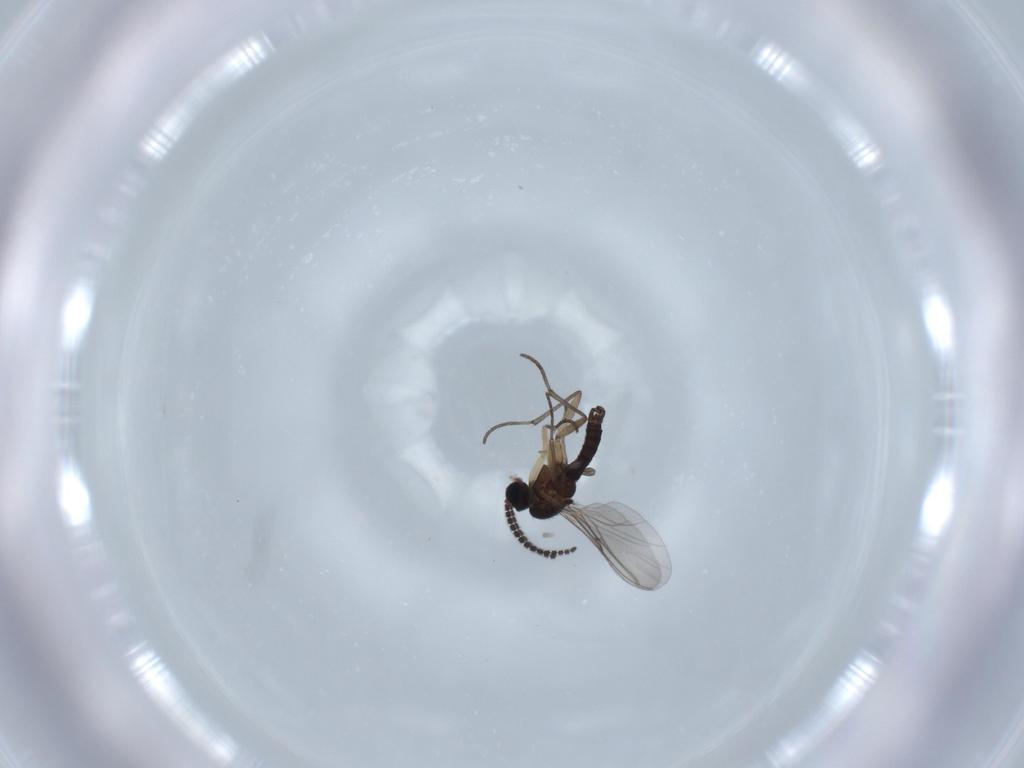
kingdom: Animalia
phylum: Arthropoda
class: Insecta
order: Diptera
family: Sciaridae
